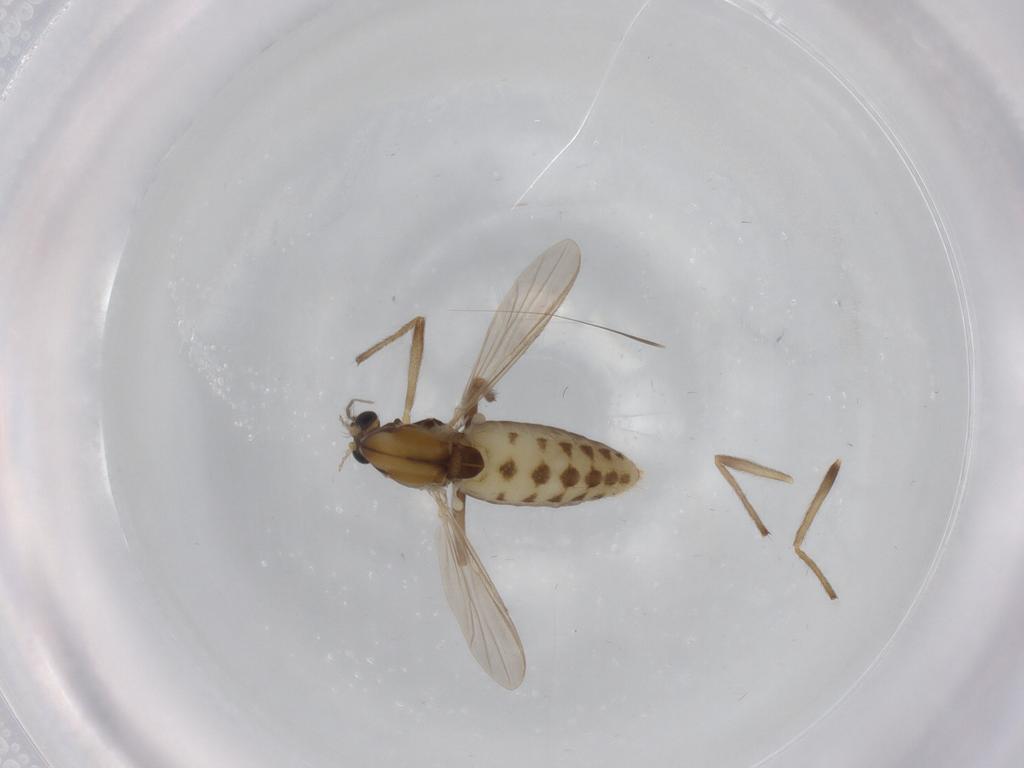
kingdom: Animalia
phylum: Arthropoda
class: Insecta
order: Diptera
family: Chironomidae
